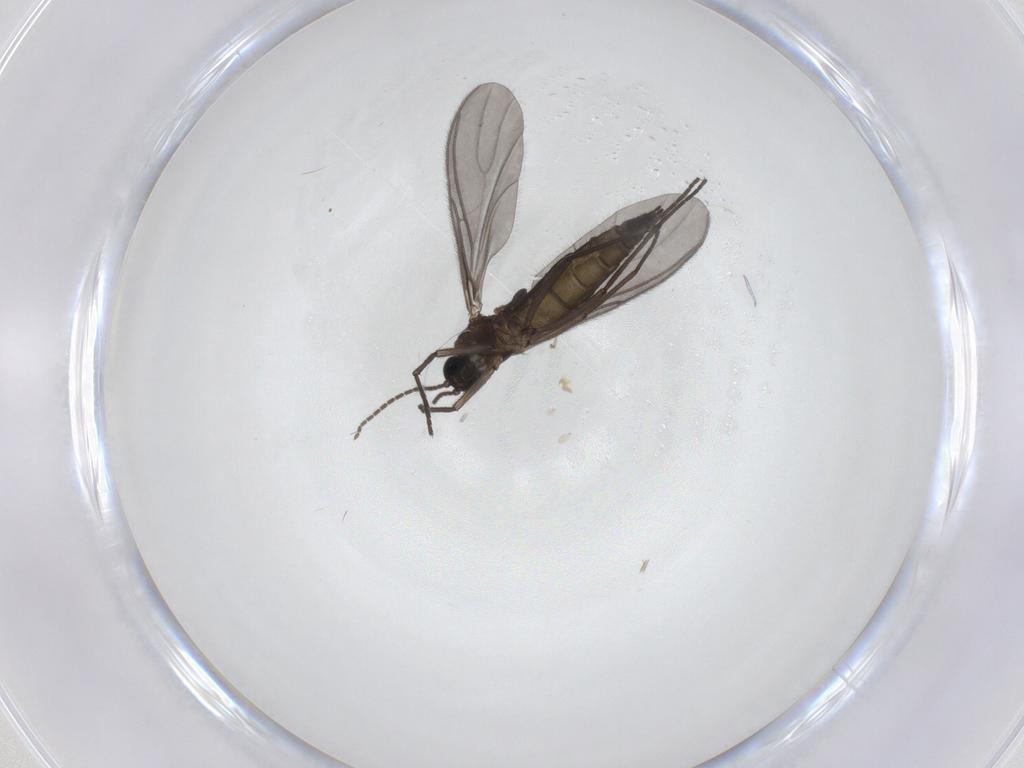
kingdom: Animalia
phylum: Arthropoda
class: Insecta
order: Diptera
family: Sciaridae
